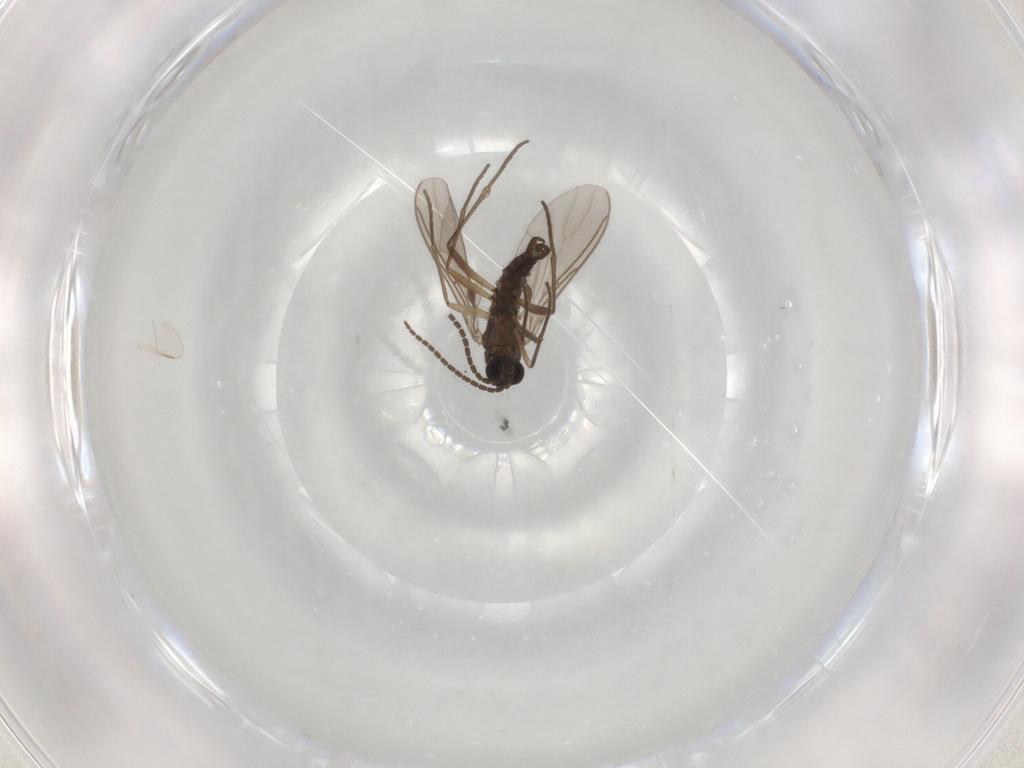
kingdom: Animalia
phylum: Arthropoda
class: Insecta
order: Diptera
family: Sciaridae
